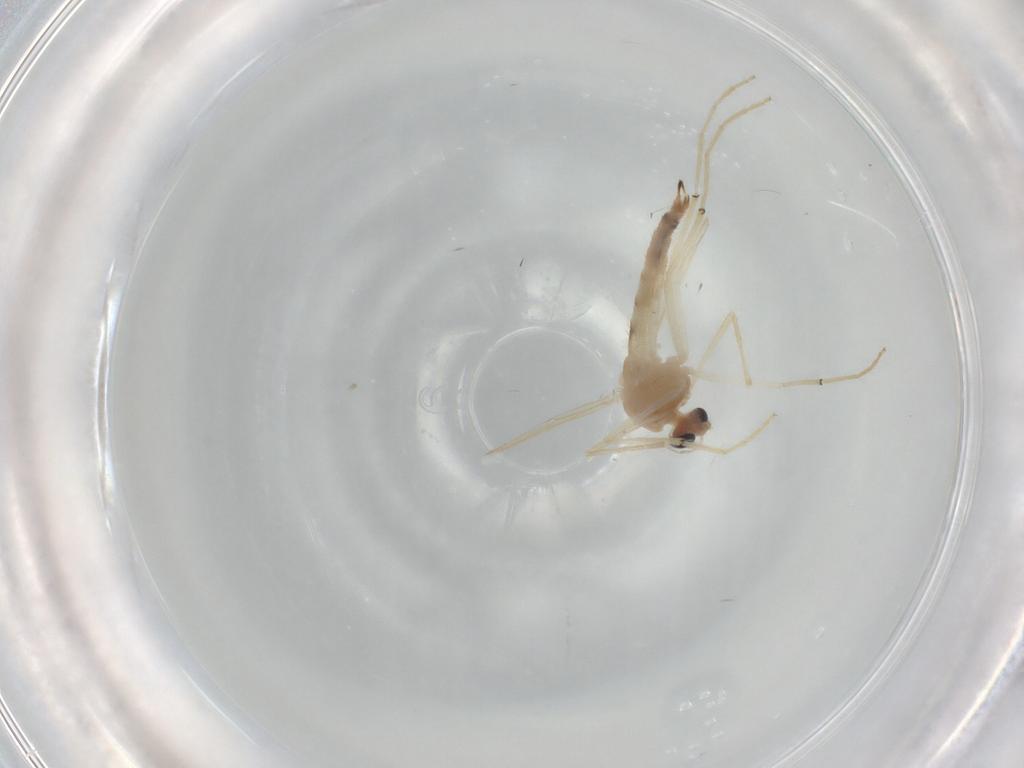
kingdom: Animalia
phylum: Arthropoda
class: Insecta
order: Diptera
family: Chironomidae
